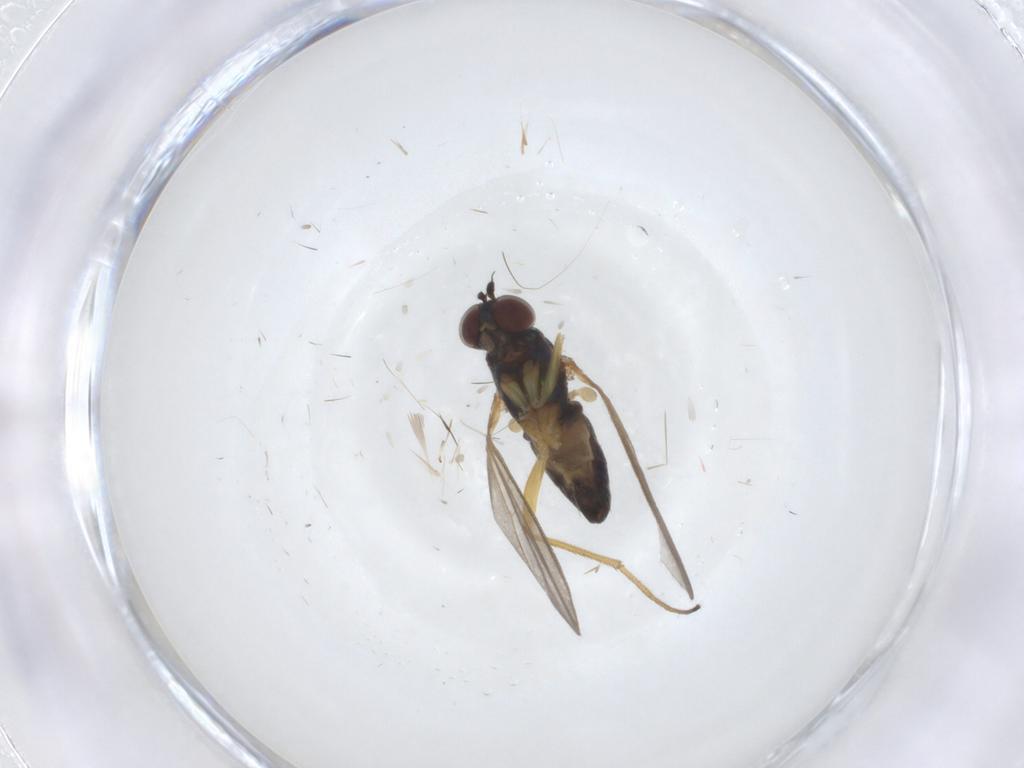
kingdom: Animalia
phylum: Arthropoda
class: Insecta
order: Diptera
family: Dolichopodidae
